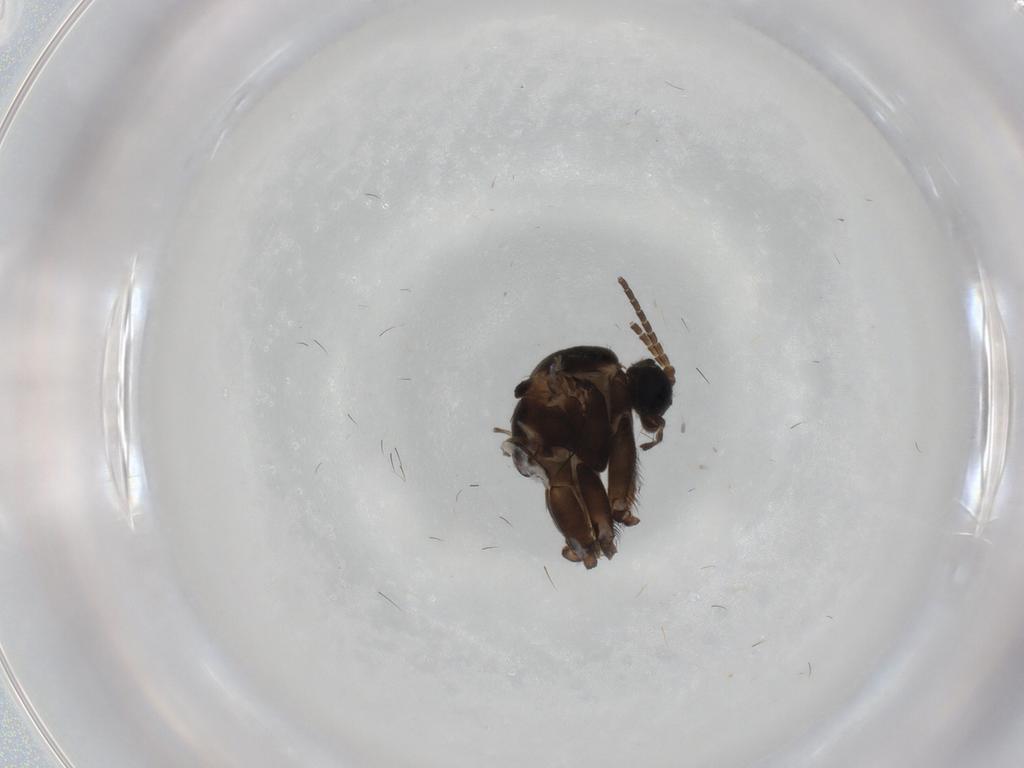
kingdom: Animalia
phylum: Arthropoda
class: Insecta
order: Diptera
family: Sciaridae
